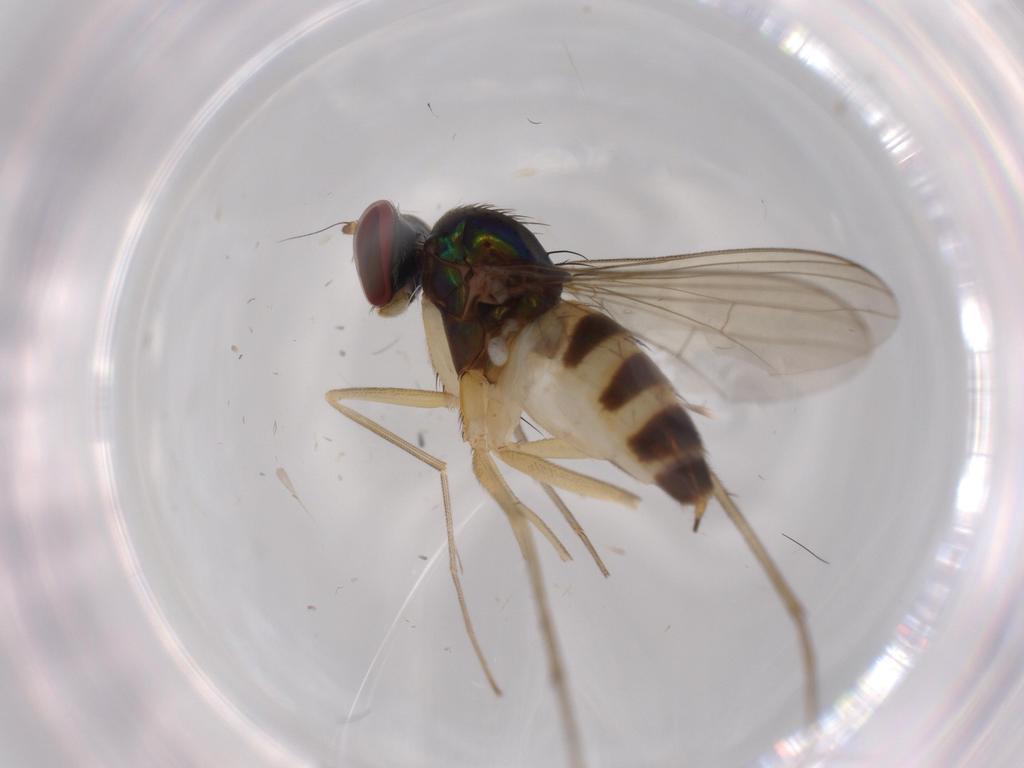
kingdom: Animalia
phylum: Arthropoda
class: Insecta
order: Diptera
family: Dolichopodidae
